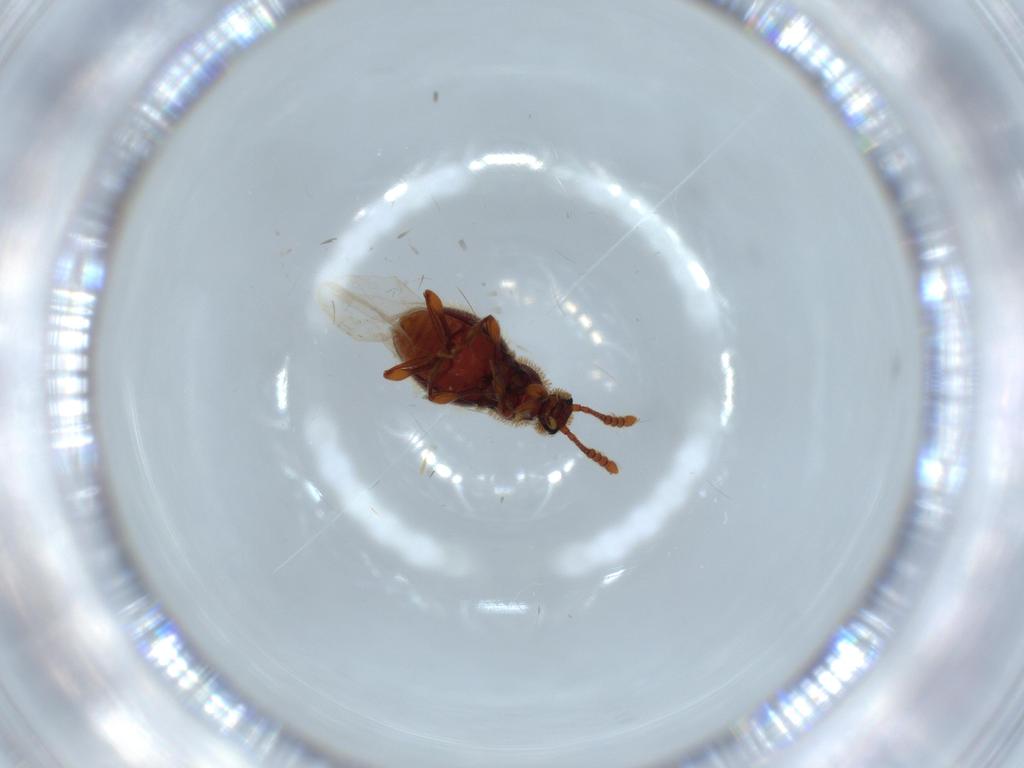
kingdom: Animalia
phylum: Arthropoda
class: Insecta
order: Coleoptera
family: Staphylinidae
